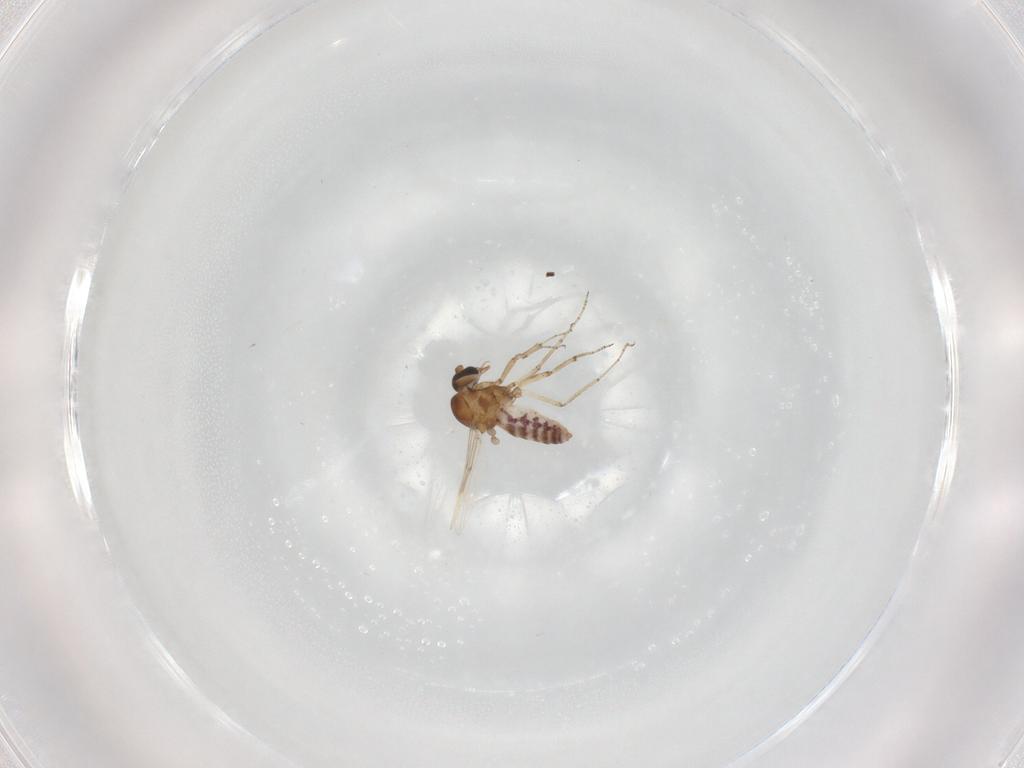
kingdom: Animalia
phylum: Arthropoda
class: Insecta
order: Diptera
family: Ceratopogonidae
